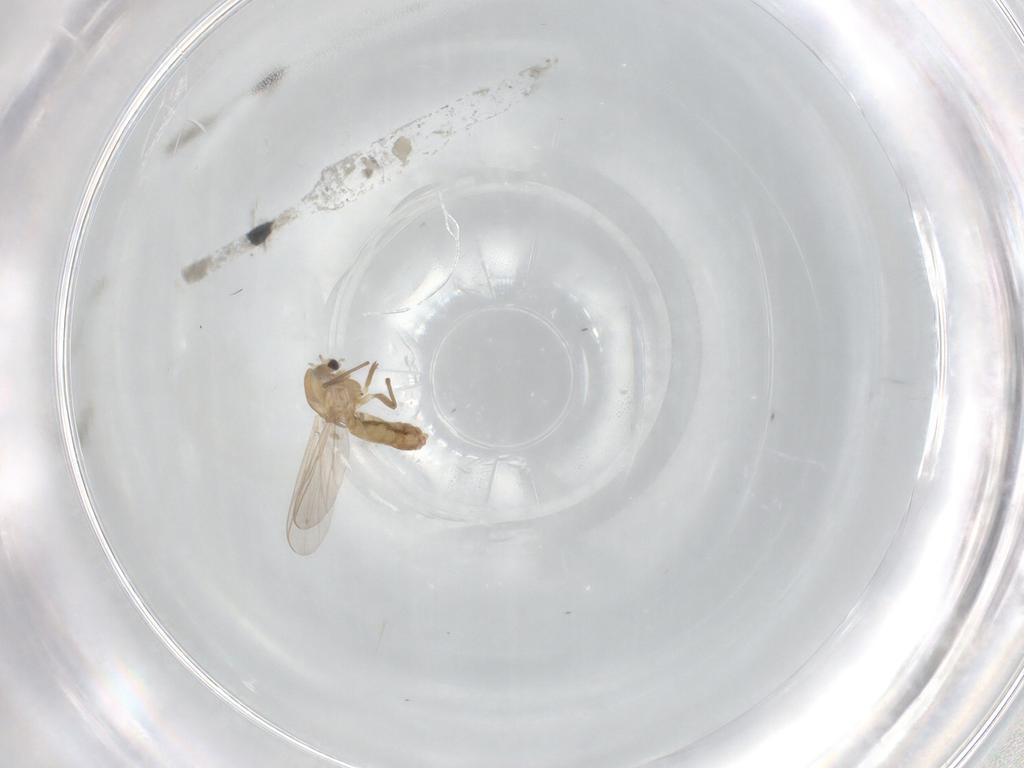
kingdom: Animalia
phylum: Arthropoda
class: Insecta
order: Diptera
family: Chironomidae
